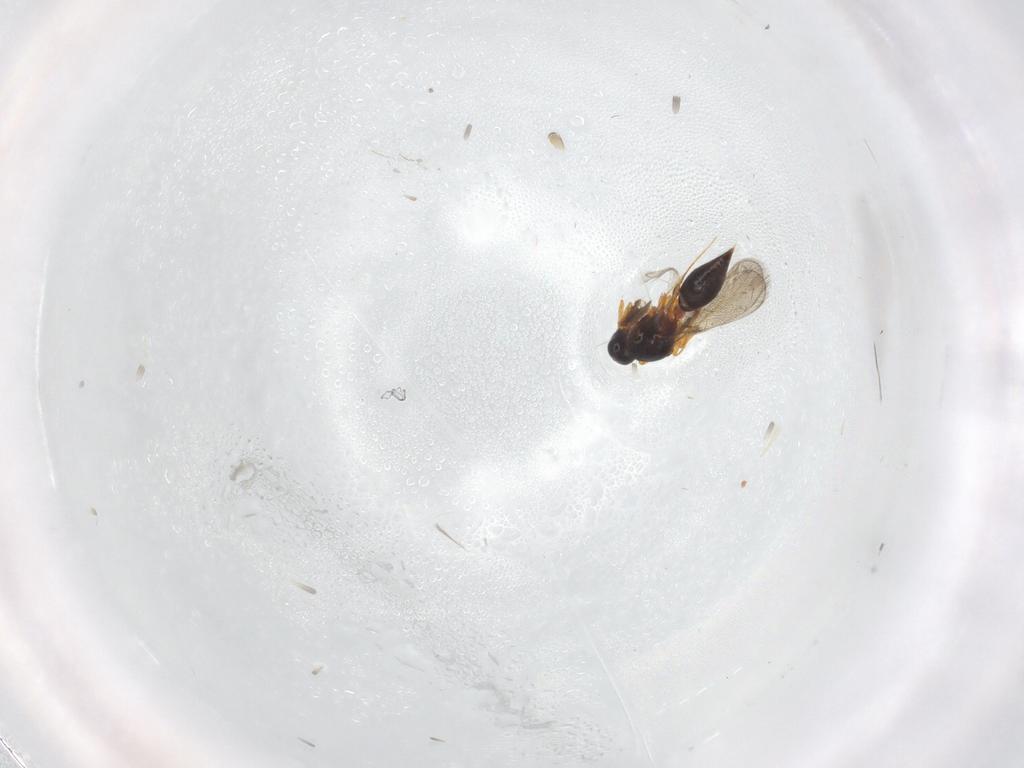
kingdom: Animalia
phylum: Arthropoda
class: Insecta
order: Hymenoptera
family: Platygastridae
